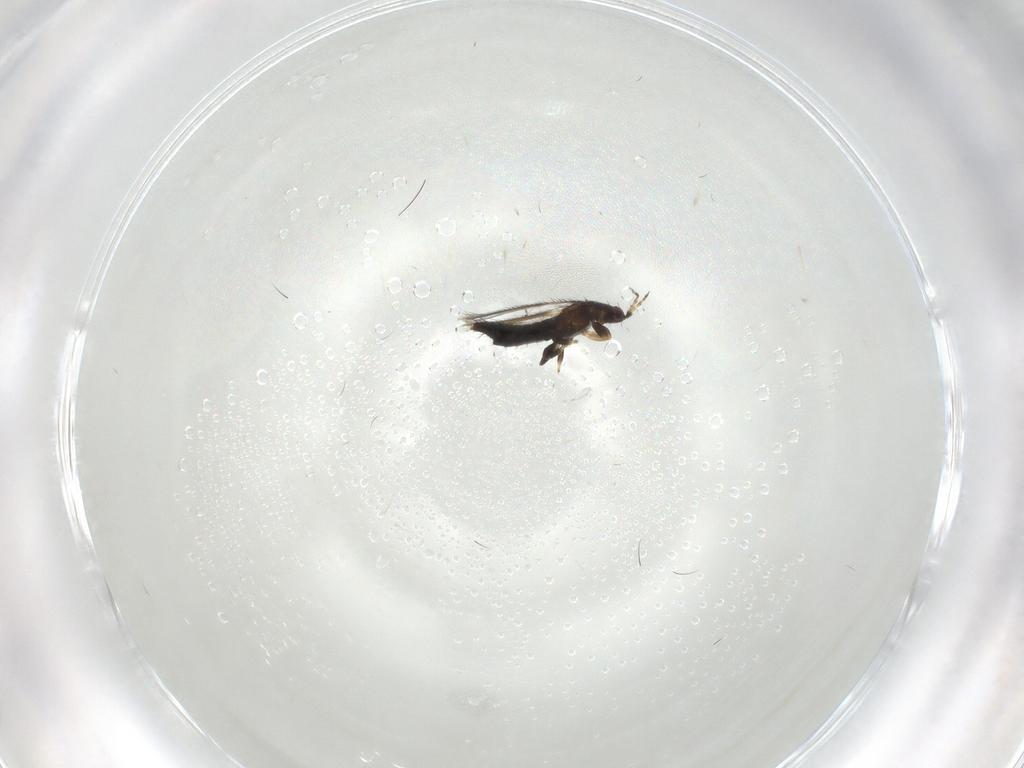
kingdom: Animalia
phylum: Arthropoda
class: Insecta
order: Thysanoptera
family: Thripidae
